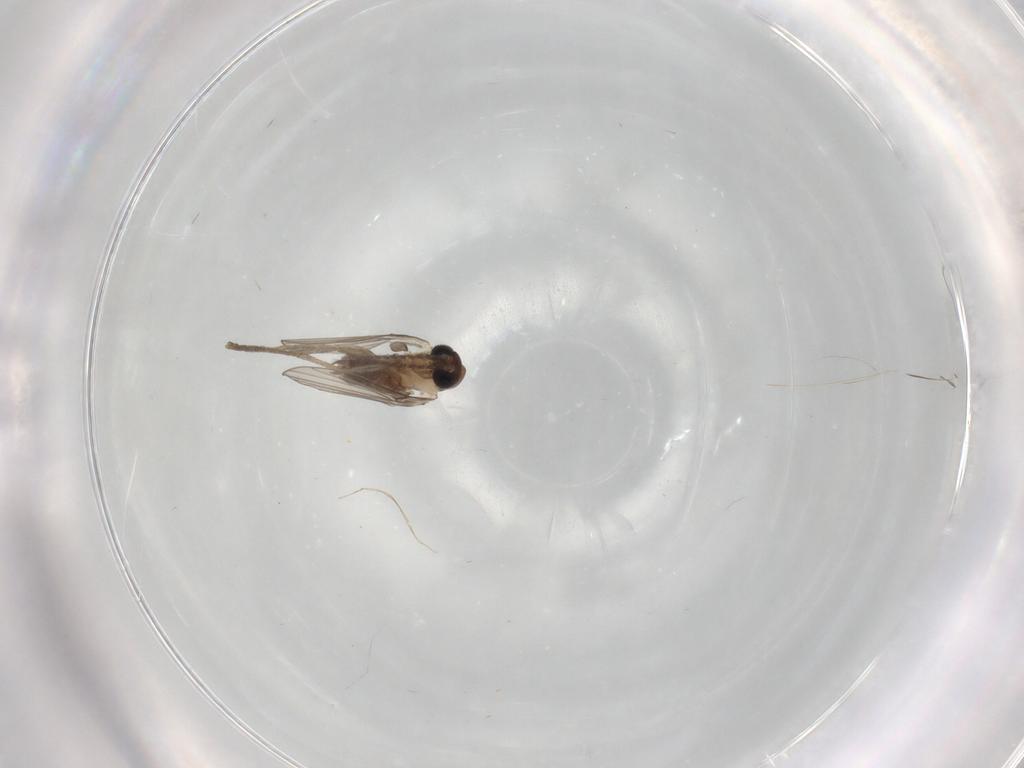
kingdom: Animalia
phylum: Arthropoda
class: Insecta
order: Diptera
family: Psychodidae
